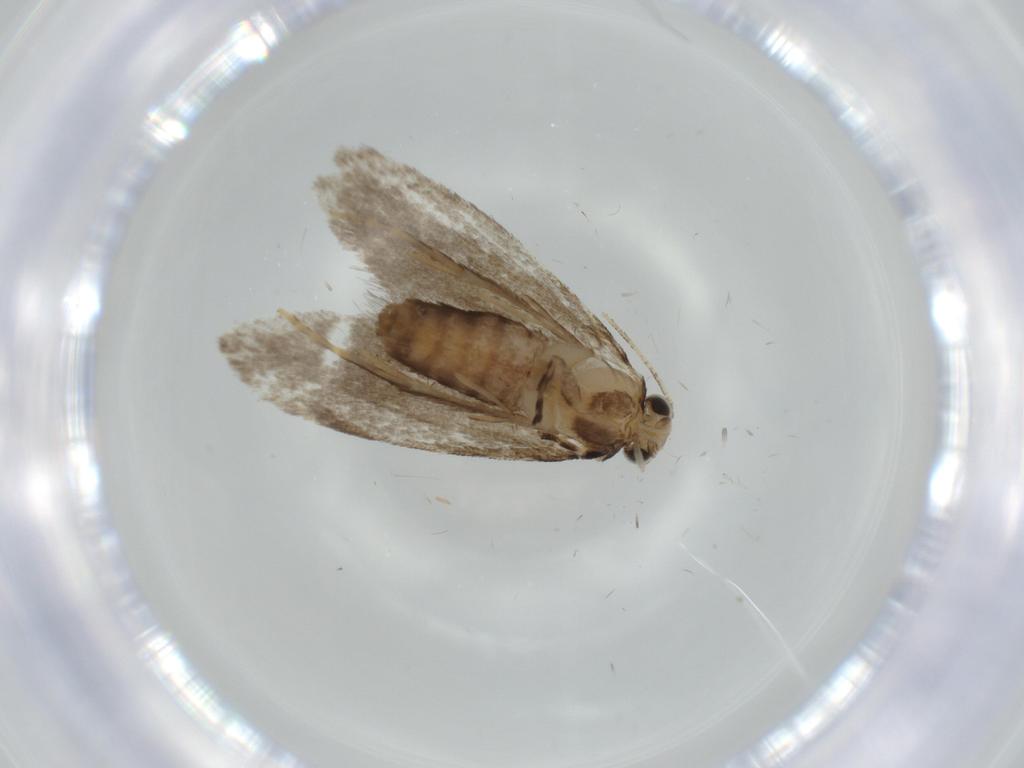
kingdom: Animalia
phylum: Arthropoda
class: Insecta
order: Lepidoptera
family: Tineidae
